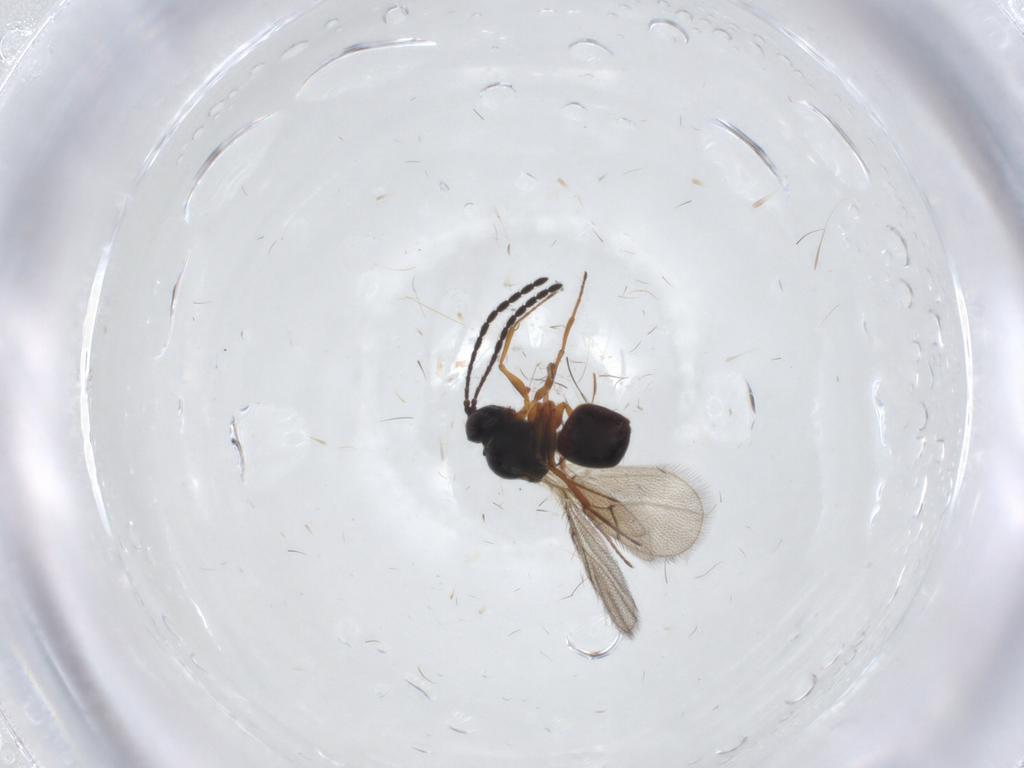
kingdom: Animalia
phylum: Arthropoda
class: Insecta
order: Hymenoptera
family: Figitidae
